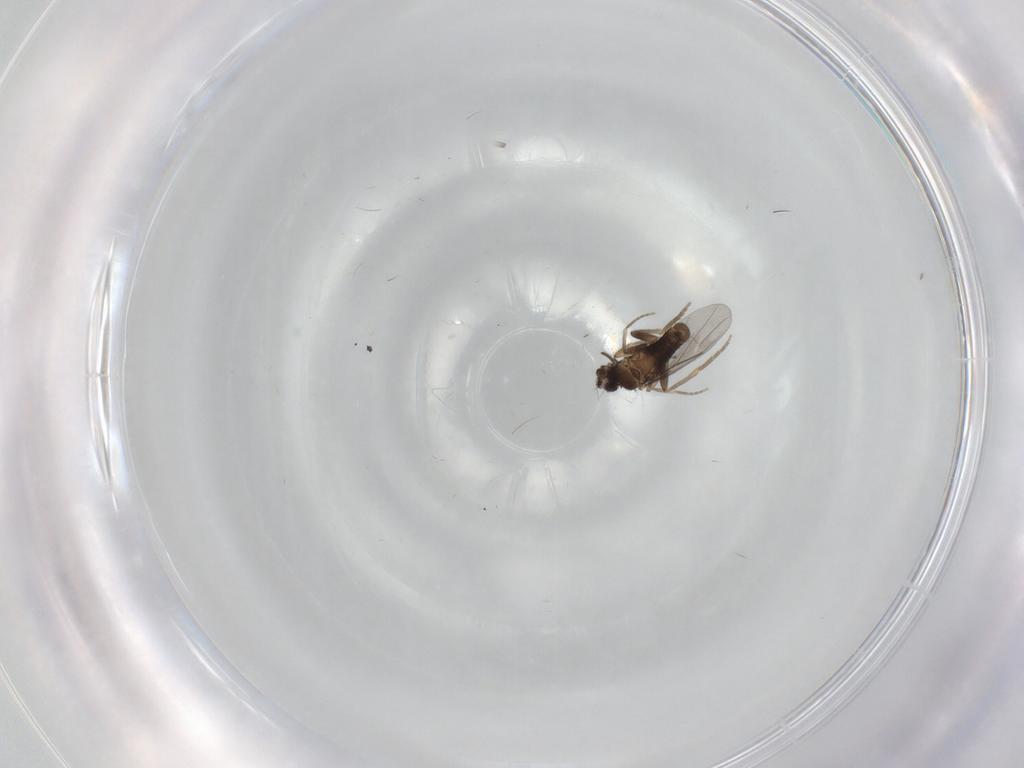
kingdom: Animalia
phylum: Arthropoda
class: Insecta
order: Diptera
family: Chironomidae
